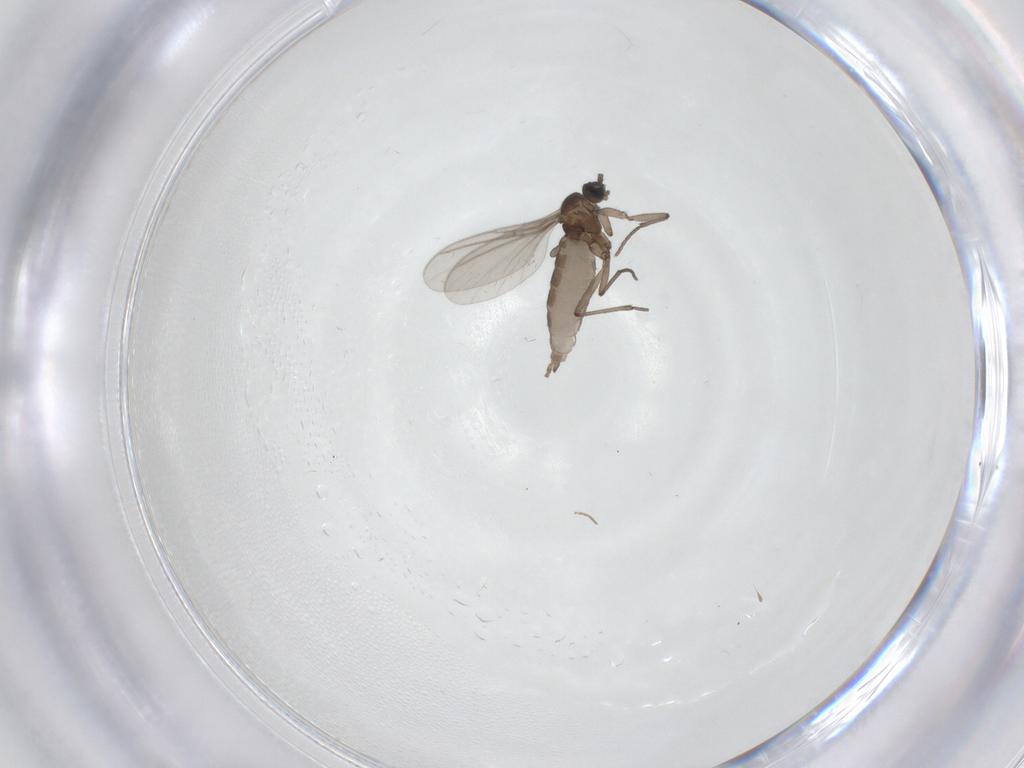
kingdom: Animalia
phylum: Arthropoda
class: Insecta
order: Diptera
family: Sciaridae
